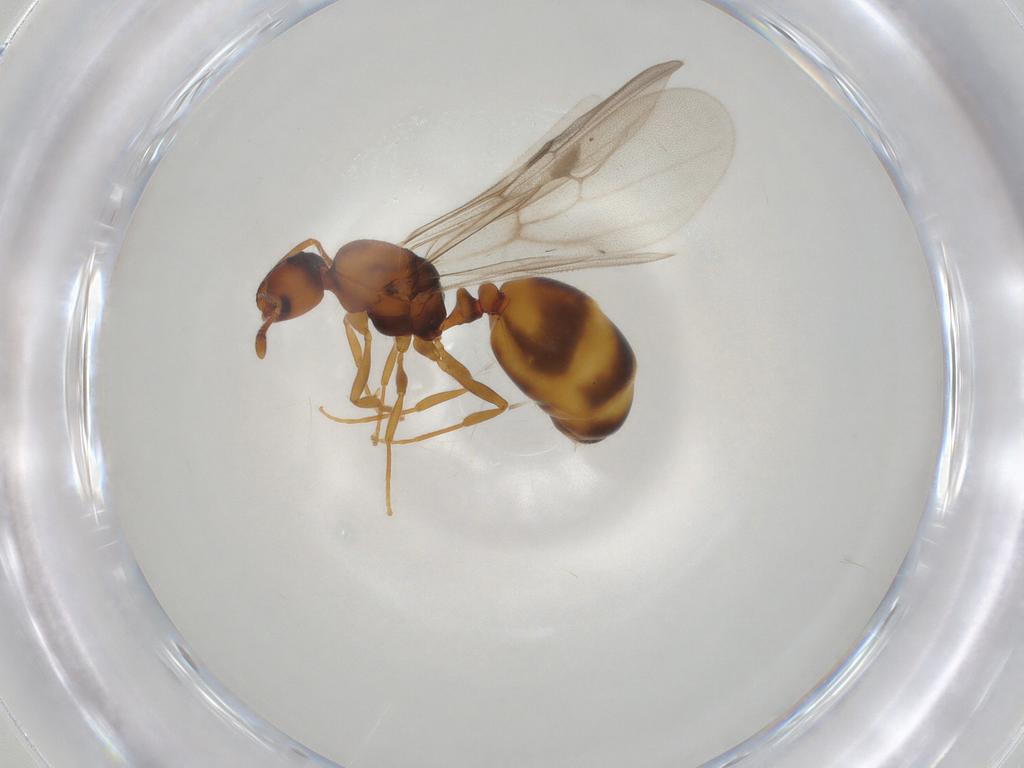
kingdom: Animalia
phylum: Arthropoda
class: Insecta
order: Hymenoptera
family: Formicidae
